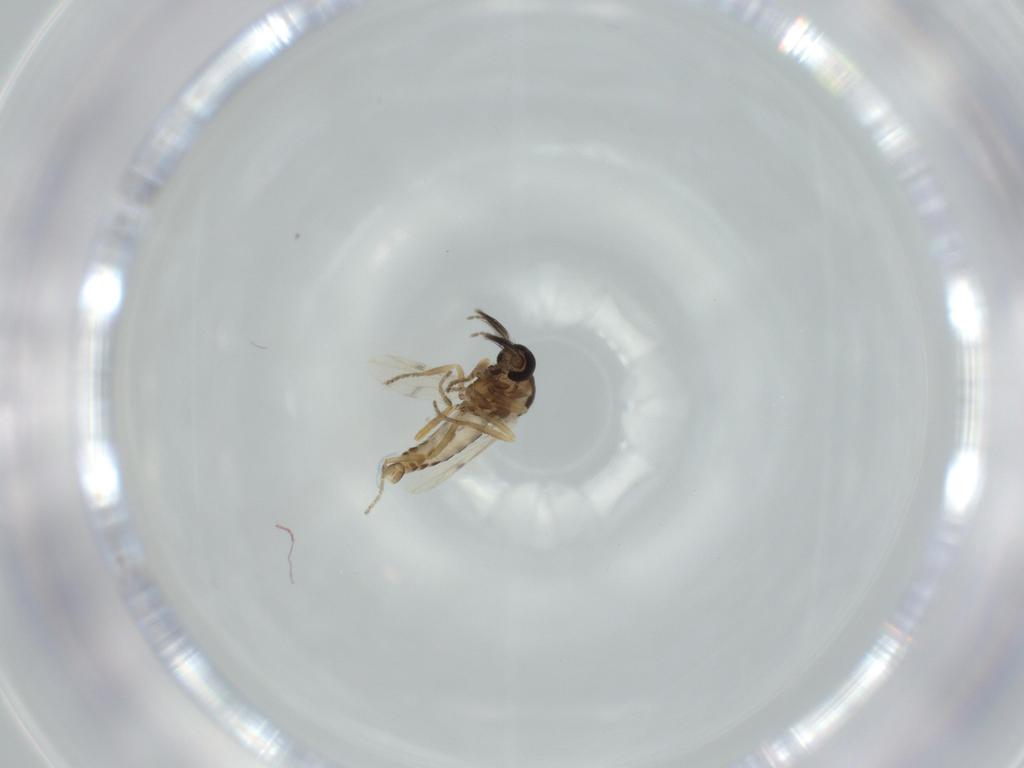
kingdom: Animalia
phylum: Arthropoda
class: Insecta
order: Diptera
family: Ceratopogonidae
